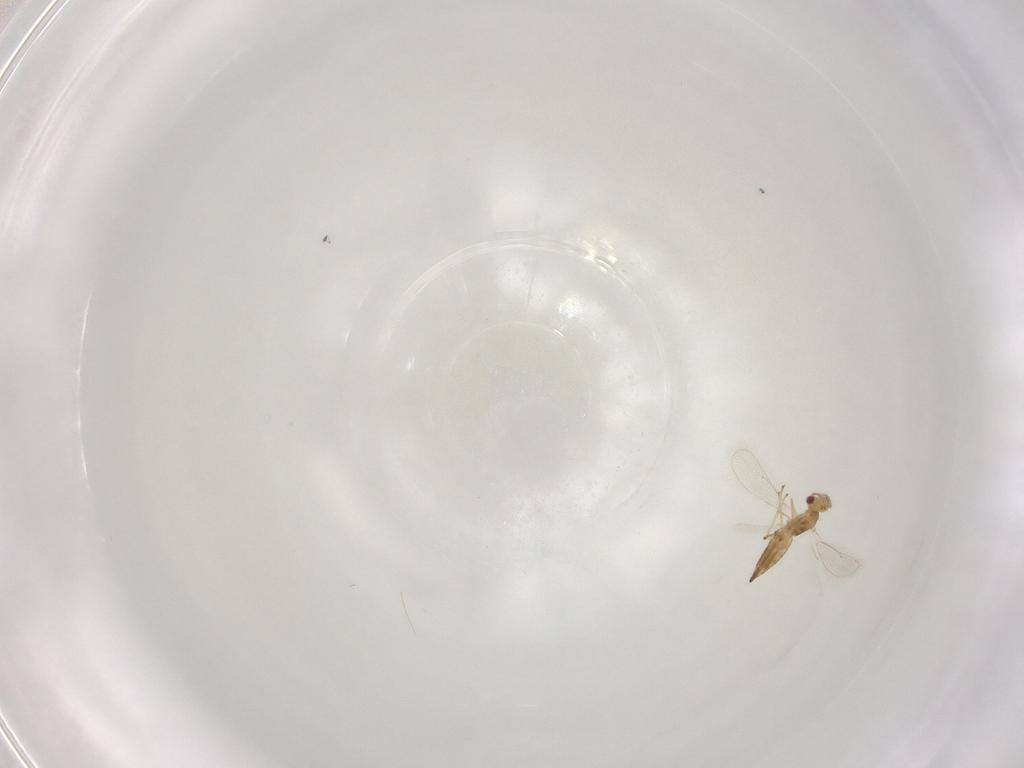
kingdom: Animalia
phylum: Arthropoda
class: Insecta
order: Hymenoptera
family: Eulophidae
